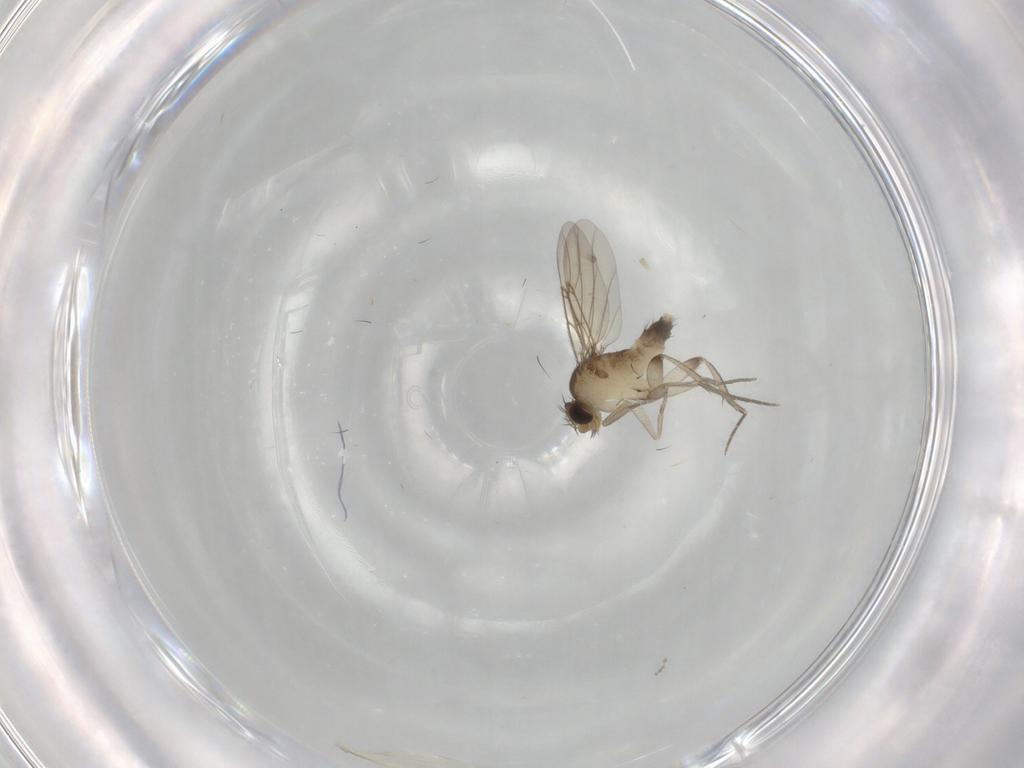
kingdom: Animalia
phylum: Arthropoda
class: Insecta
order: Diptera
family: Phoridae
